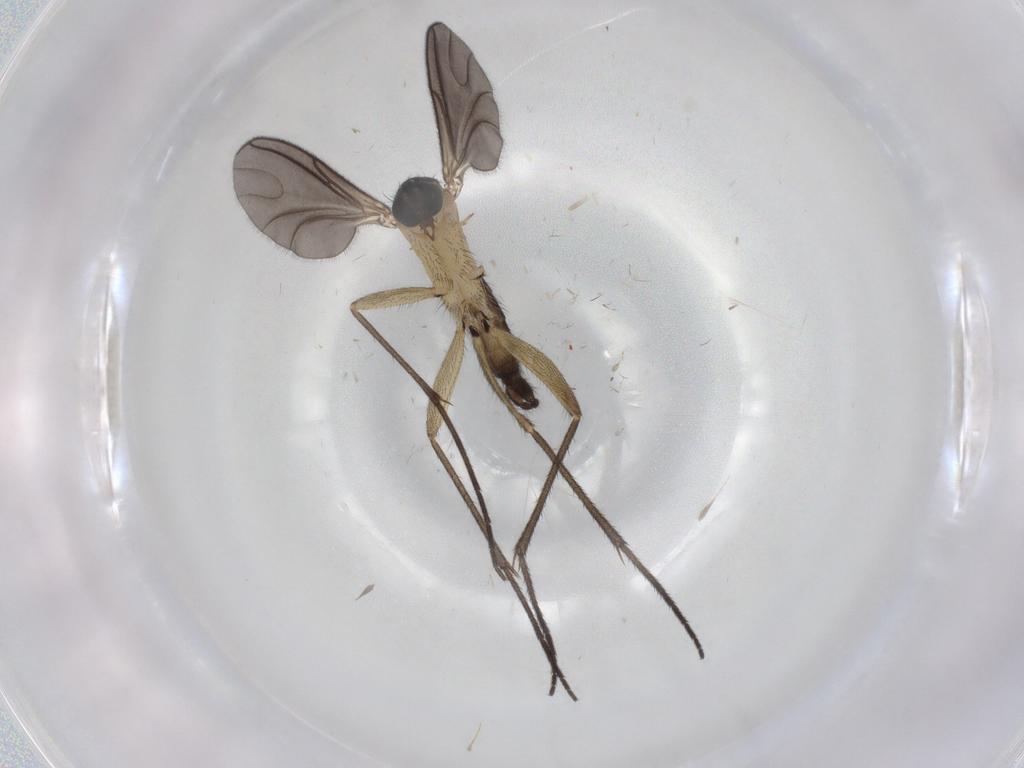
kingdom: Animalia
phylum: Arthropoda
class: Insecta
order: Diptera
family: Sciaridae
